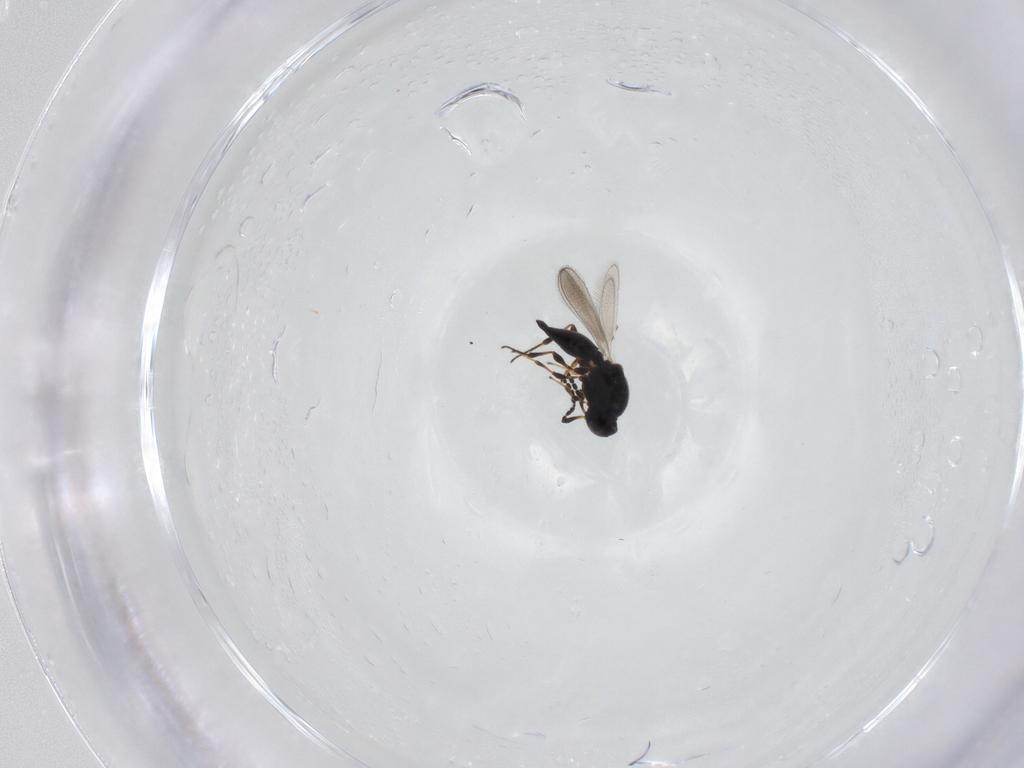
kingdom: Animalia
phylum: Arthropoda
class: Insecta
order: Hymenoptera
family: Platygastridae
